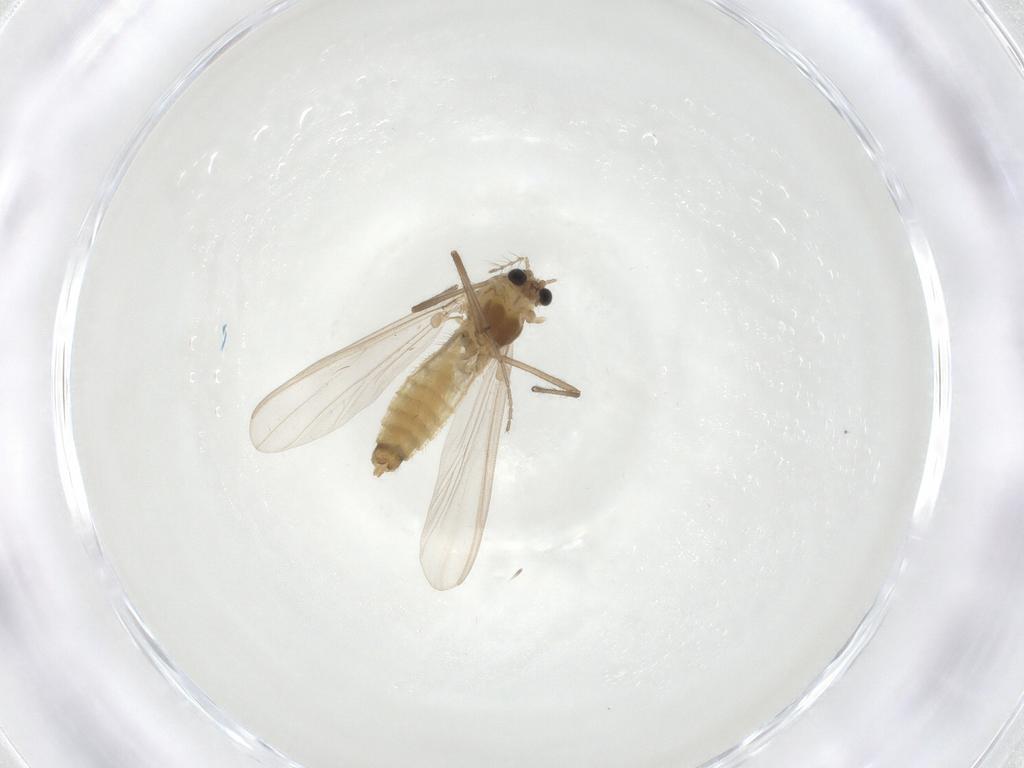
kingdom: Animalia
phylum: Arthropoda
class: Insecta
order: Diptera
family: Chironomidae
